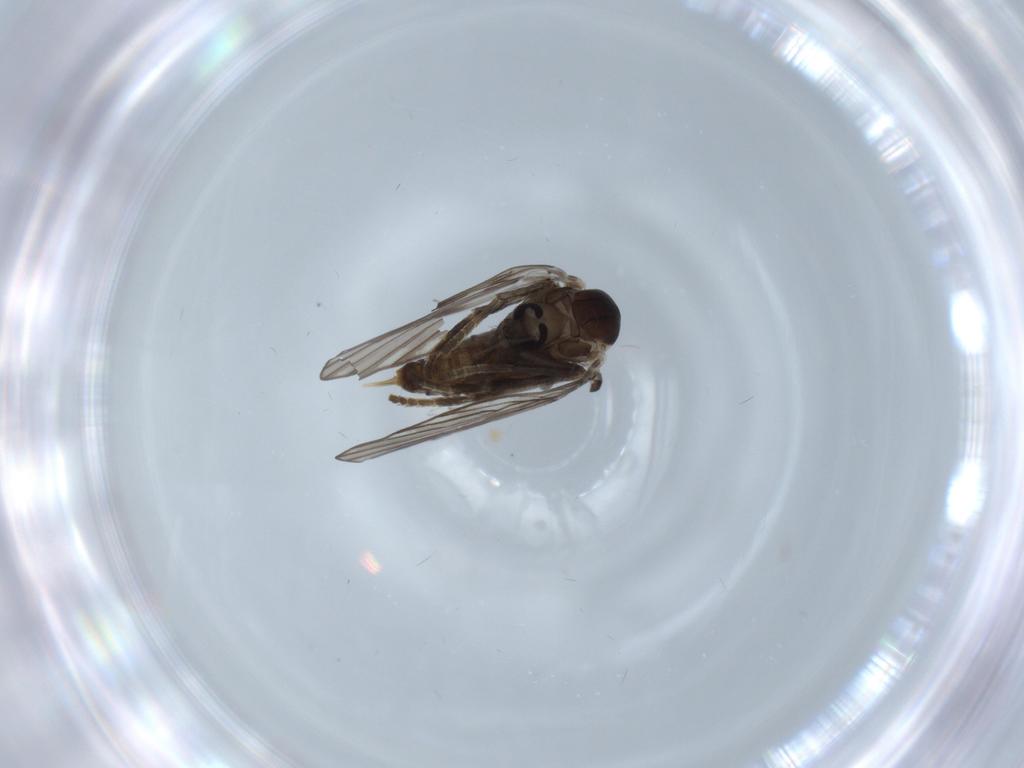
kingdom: Animalia
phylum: Arthropoda
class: Insecta
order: Diptera
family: Psychodidae
